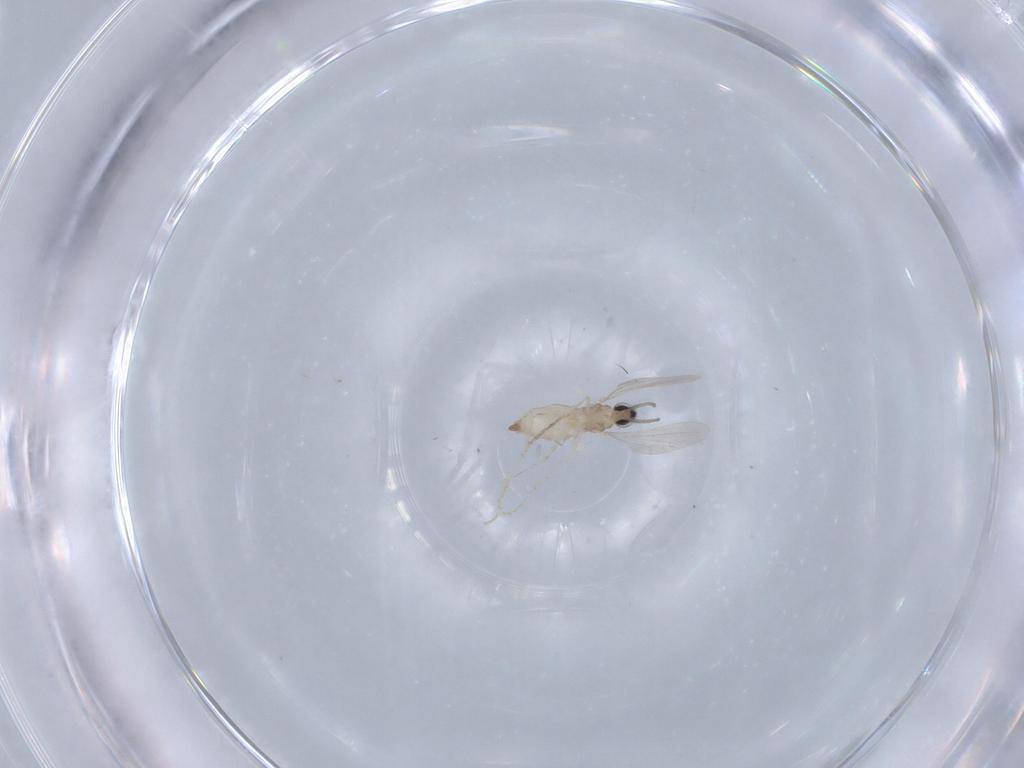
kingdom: Animalia
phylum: Arthropoda
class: Insecta
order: Diptera
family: Cecidomyiidae
